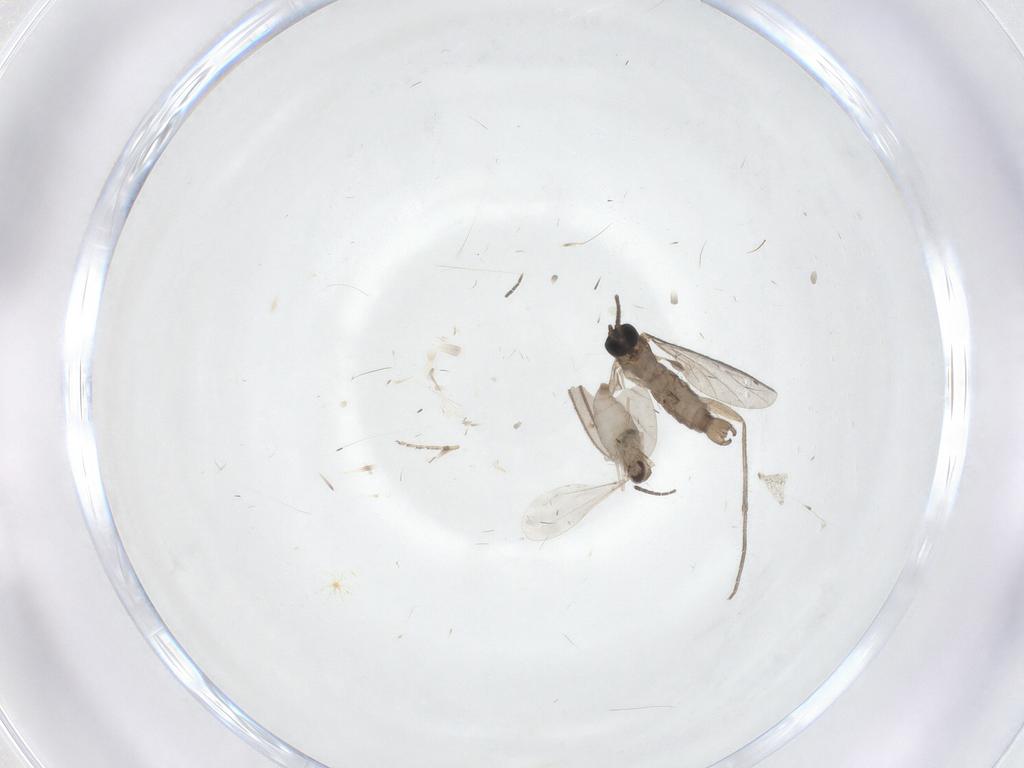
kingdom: Animalia
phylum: Arthropoda
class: Insecta
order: Diptera
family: Sciaridae
